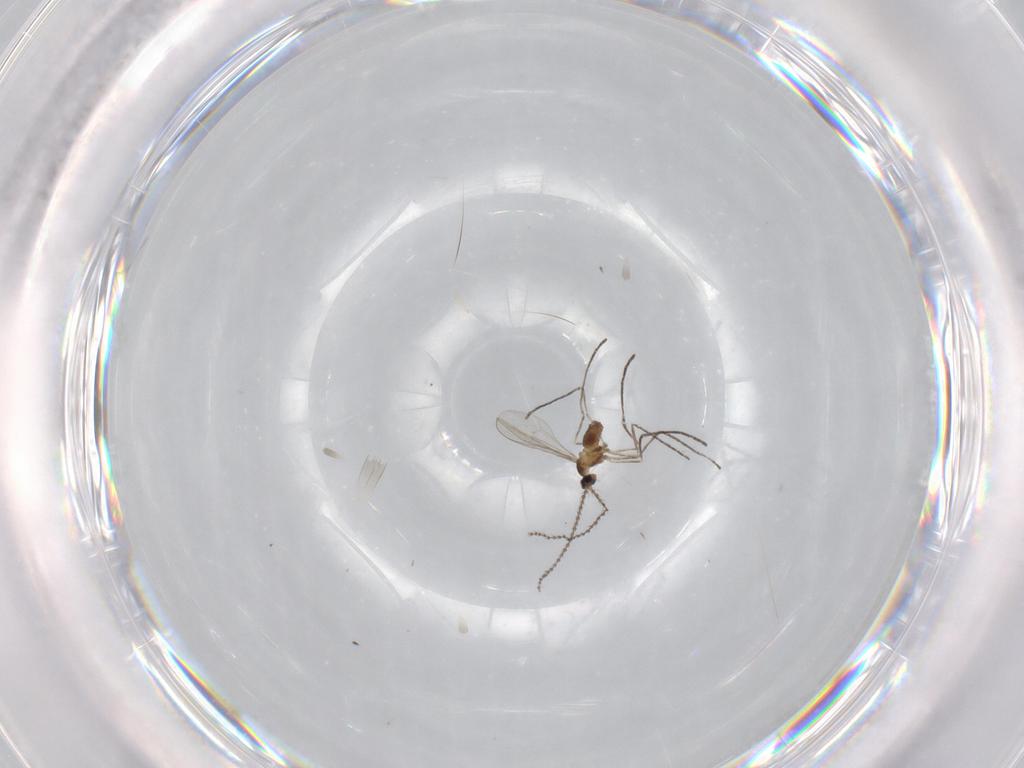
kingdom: Animalia
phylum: Arthropoda
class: Insecta
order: Diptera
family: Cecidomyiidae
